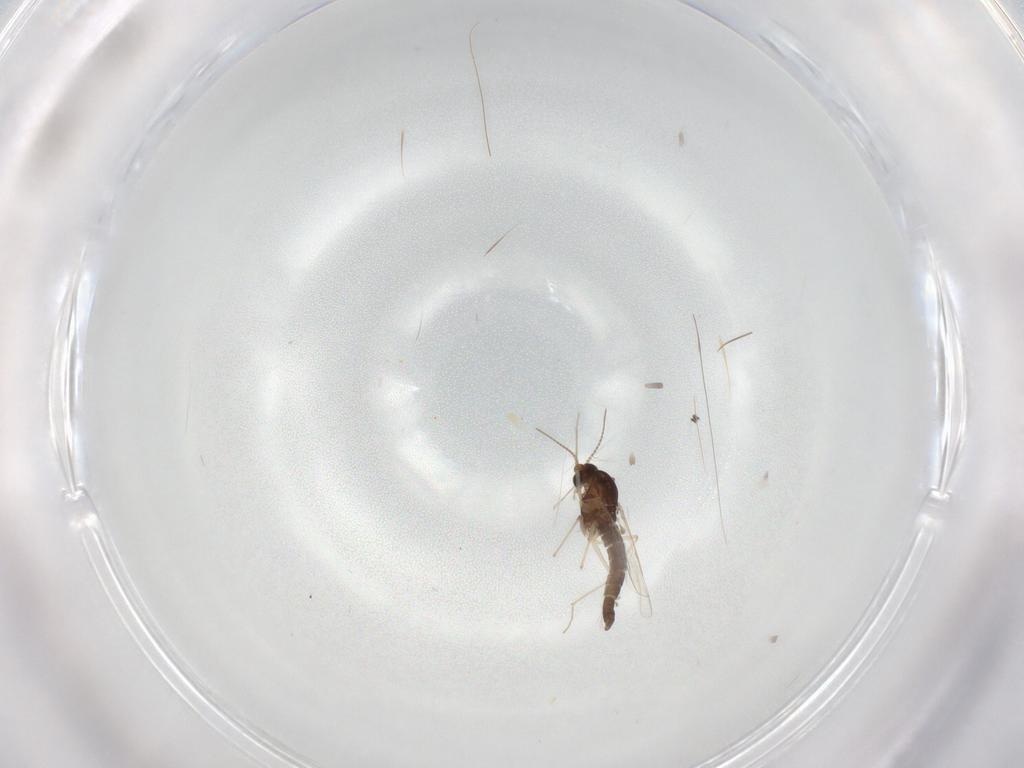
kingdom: Animalia
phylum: Arthropoda
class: Insecta
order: Diptera
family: Chironomidae
